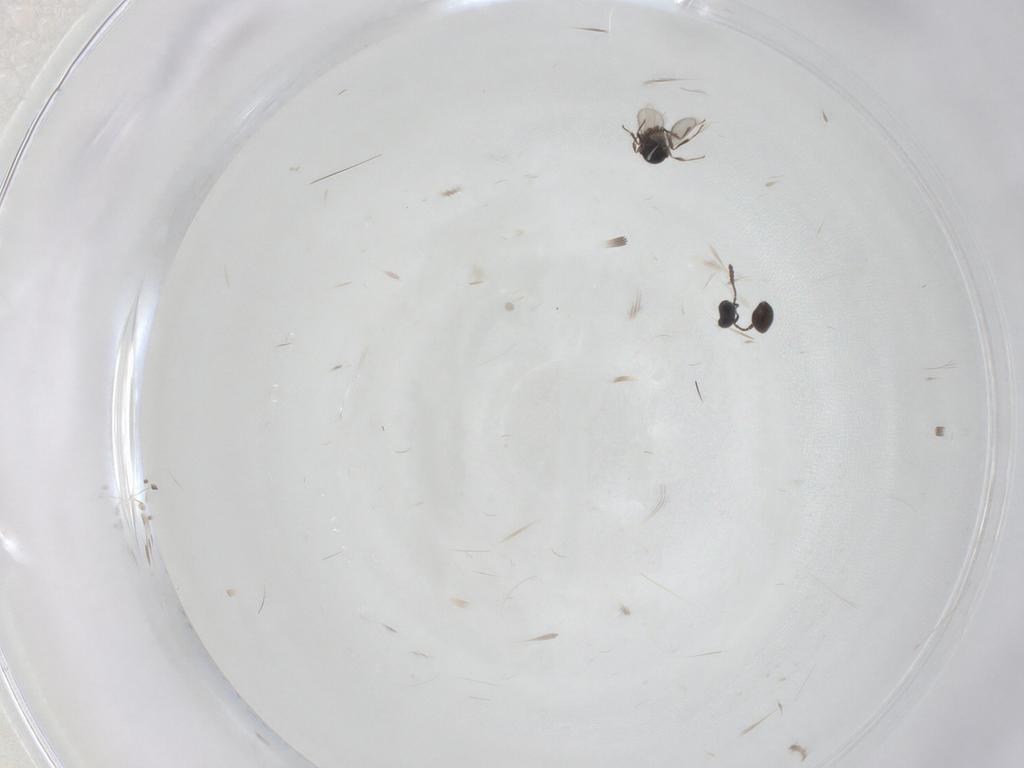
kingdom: Animalia
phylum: Arthropoda
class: Insecta
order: Hymenoptera
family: Scelionidae
